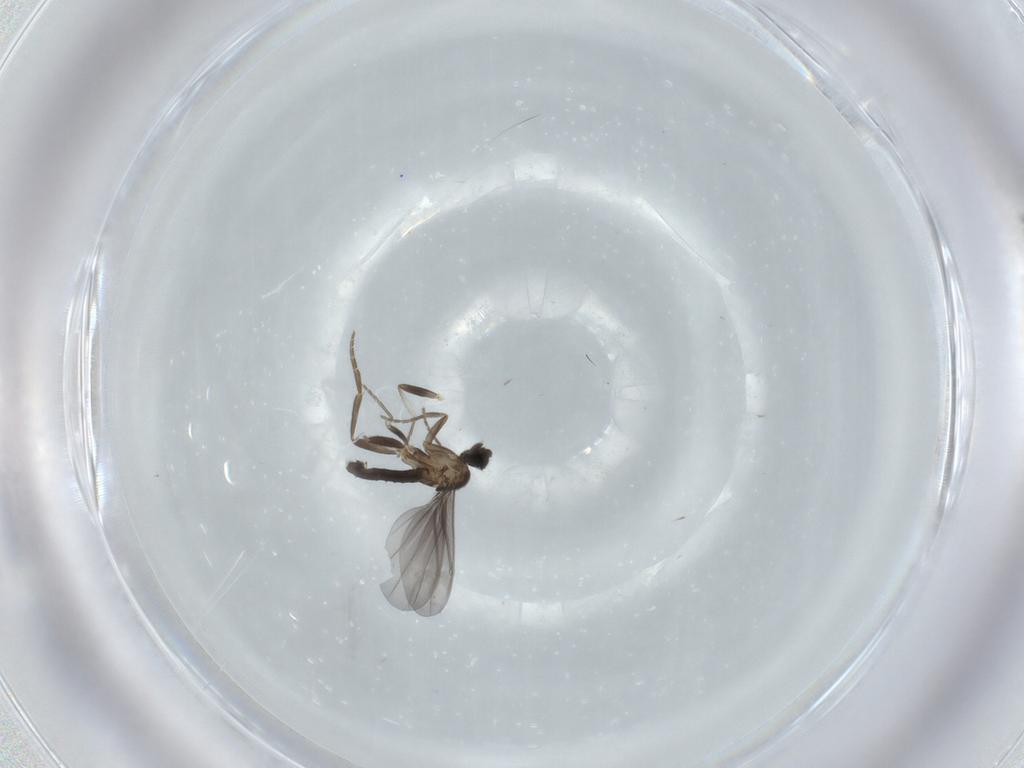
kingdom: Animalia
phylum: Arthropoda
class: Insecta
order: Diptera
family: Phoridae
